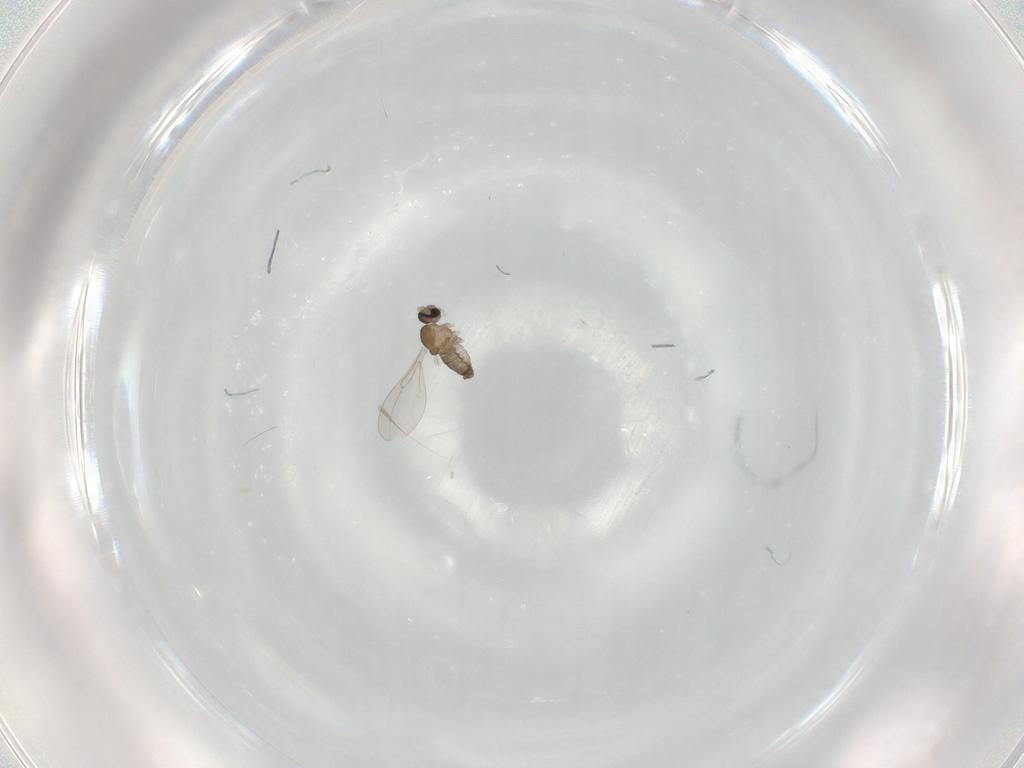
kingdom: Animalia
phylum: Arthropoda
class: Insecta
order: Diptera
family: Cecidomyiidae
